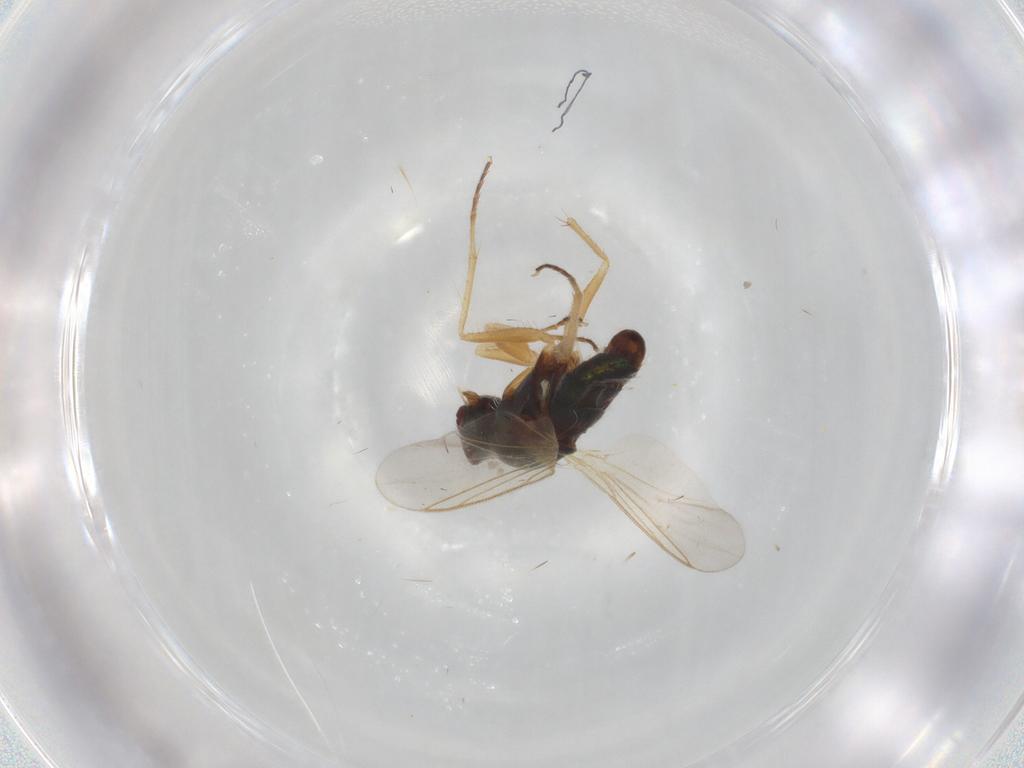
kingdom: Animalia
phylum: Arthropoda
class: Insecta
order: Diptera
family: Dolichopodidae
